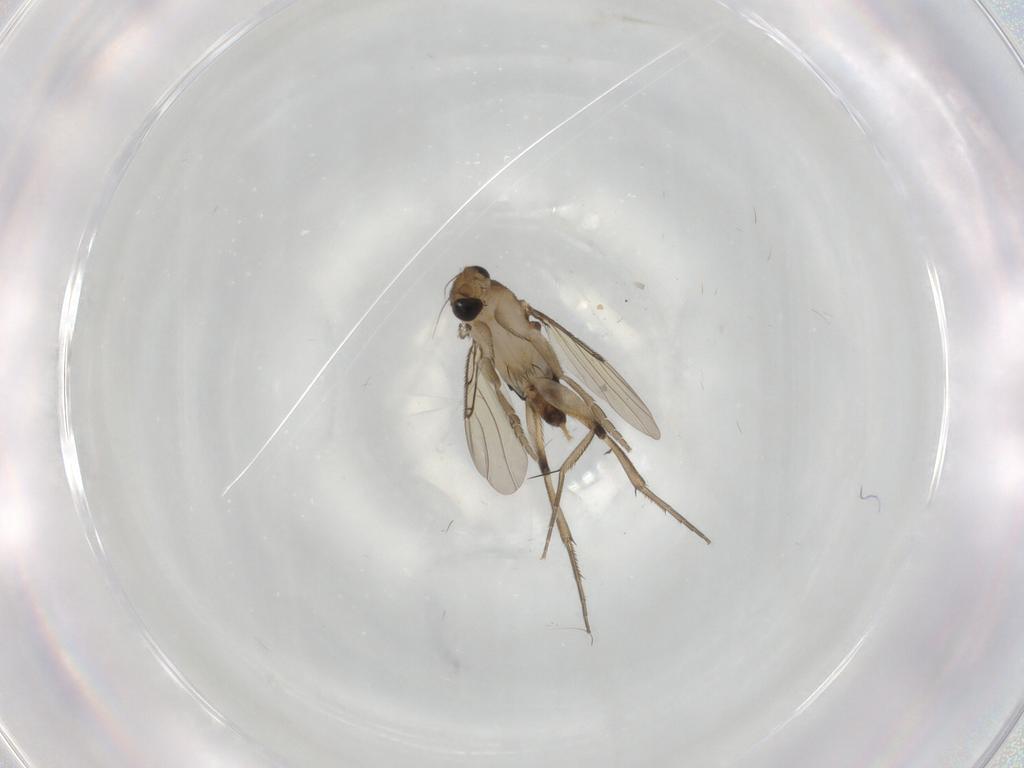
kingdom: Animalia
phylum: Arthropoda
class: Insecta
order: Diptera
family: Phoridae
